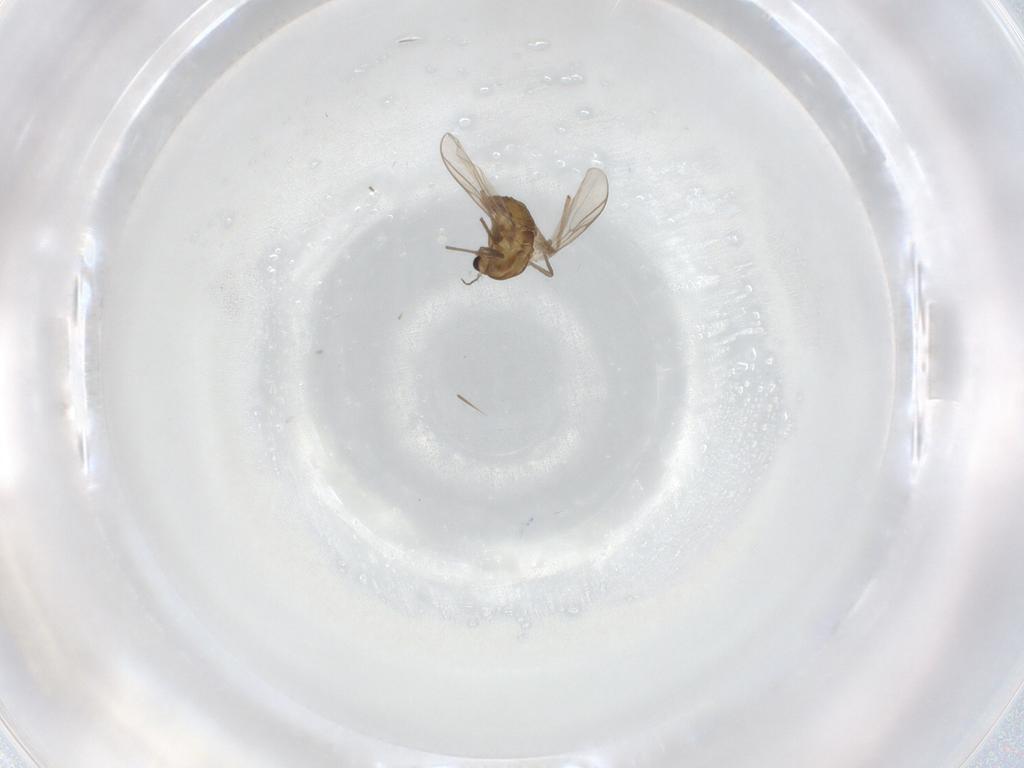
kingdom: Animalia
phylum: Arthropoda
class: Insecta
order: Diptera
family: Chironomidae
